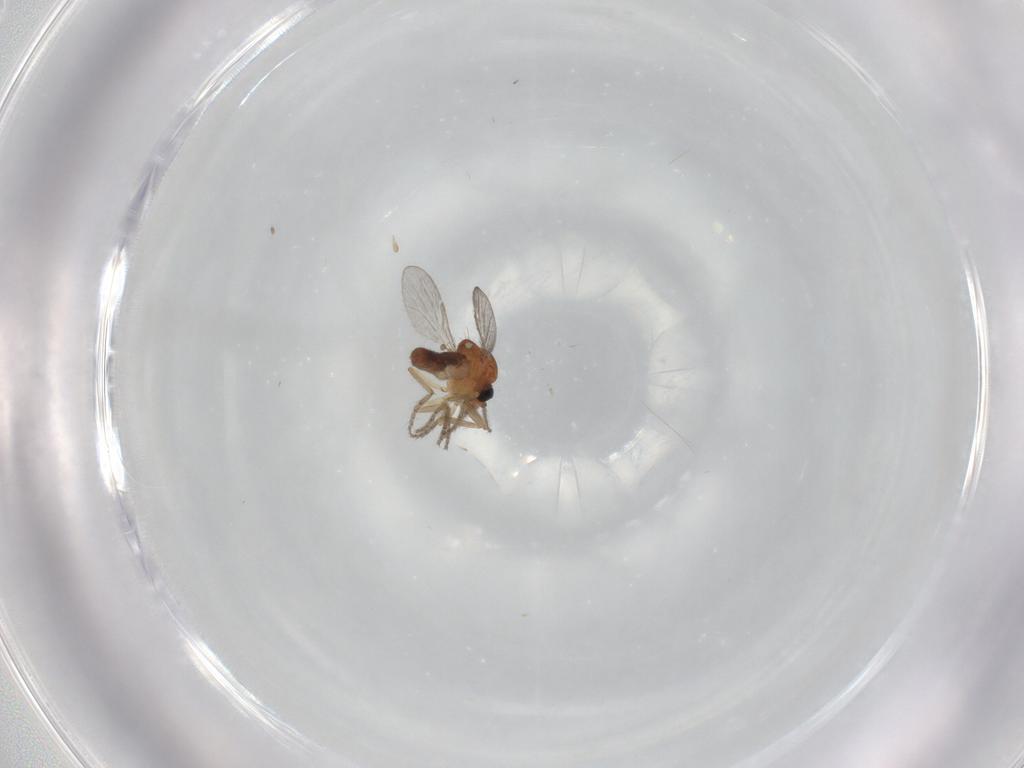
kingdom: Animalia
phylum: Arthropoda
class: Insecta
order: Diptera
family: Ceratopogonidae
